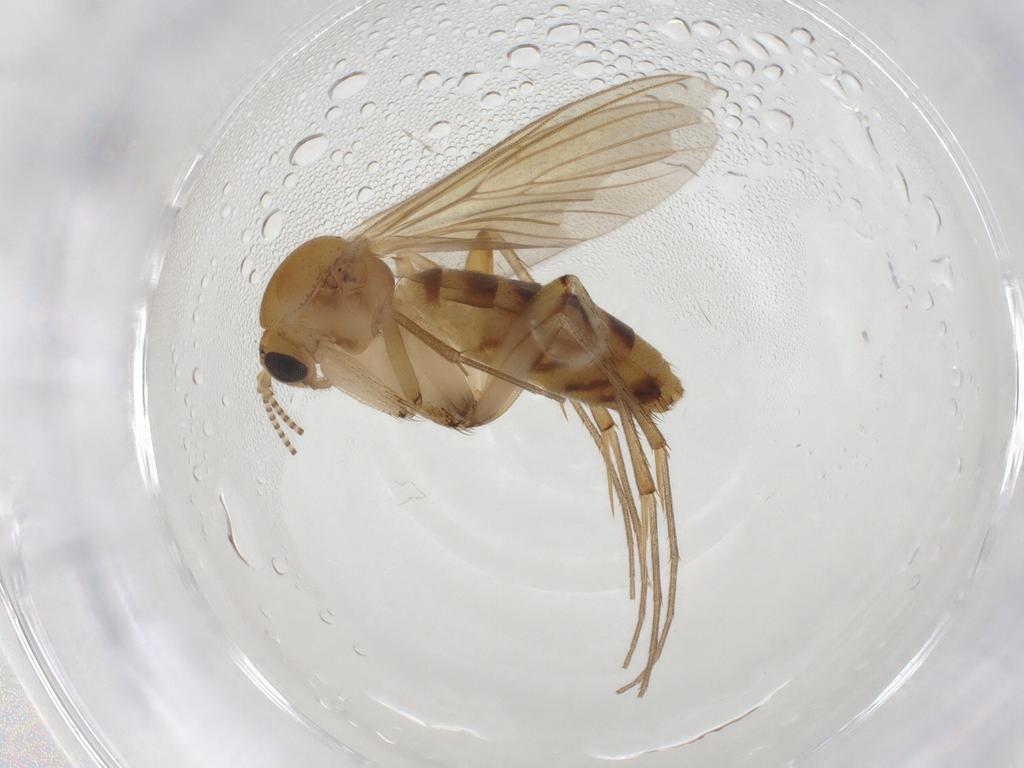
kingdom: Animalia
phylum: Arthropoda
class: Insecta
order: Diptera
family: Mycetophilidae
